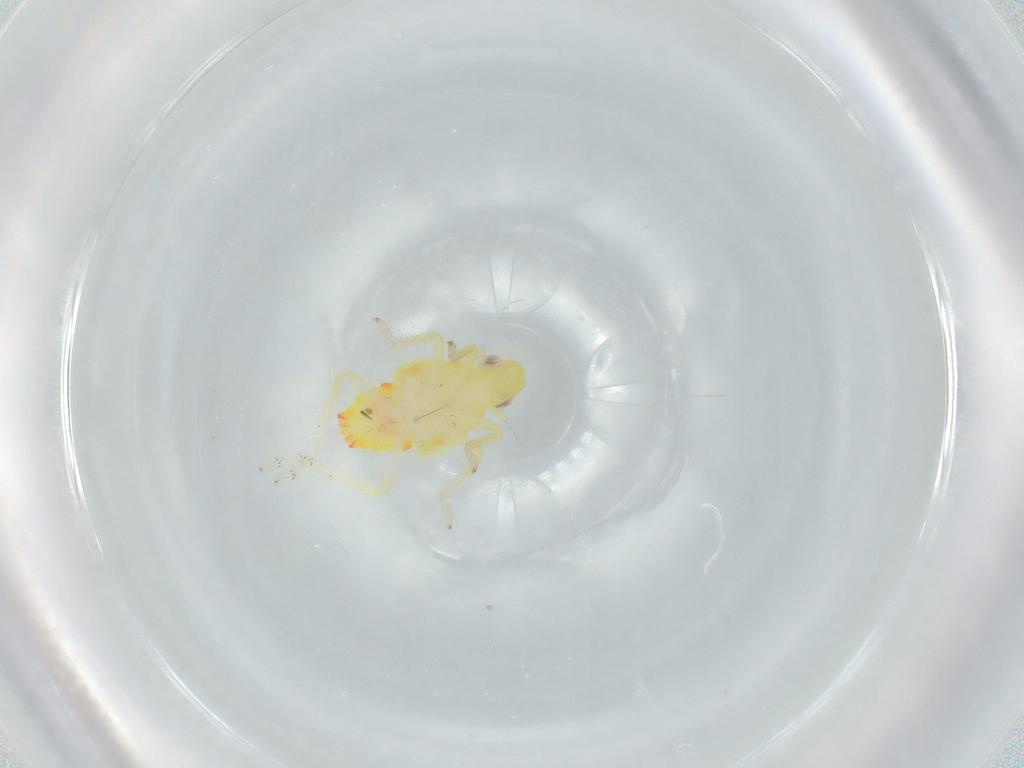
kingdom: Animalia
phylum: Arthropoda
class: Insecta
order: Hemiptera
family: Tropiduchidae
